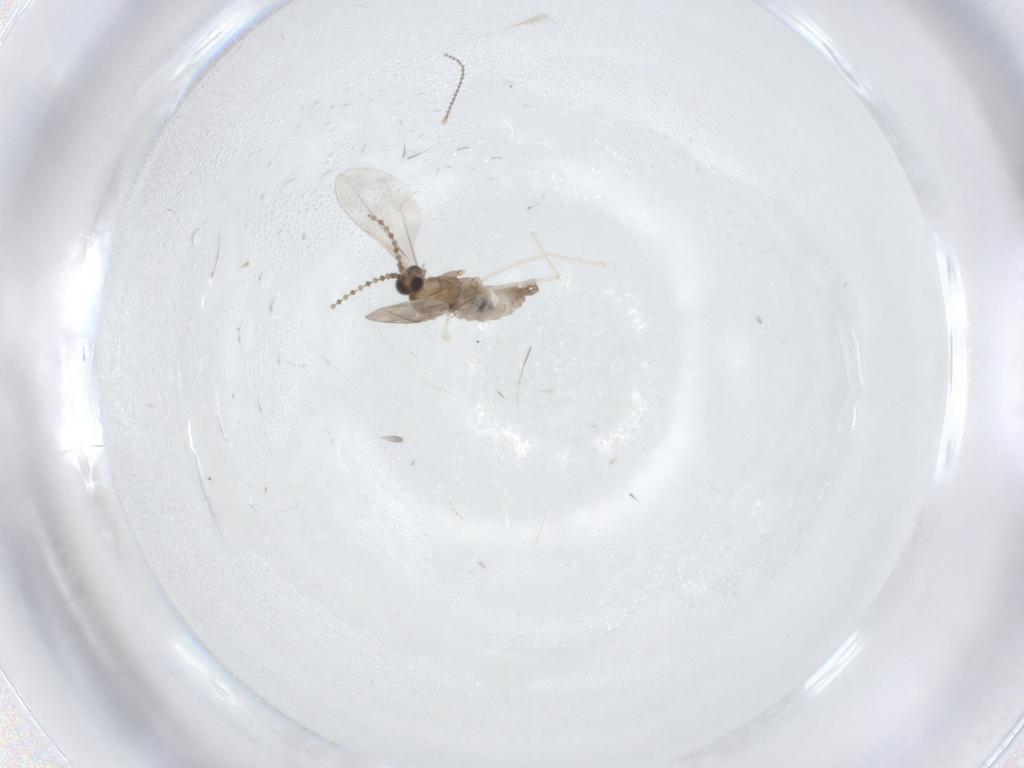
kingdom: Animalia
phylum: Arthropoda
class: Insecta
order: Diptera
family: Cecidomyiidae
